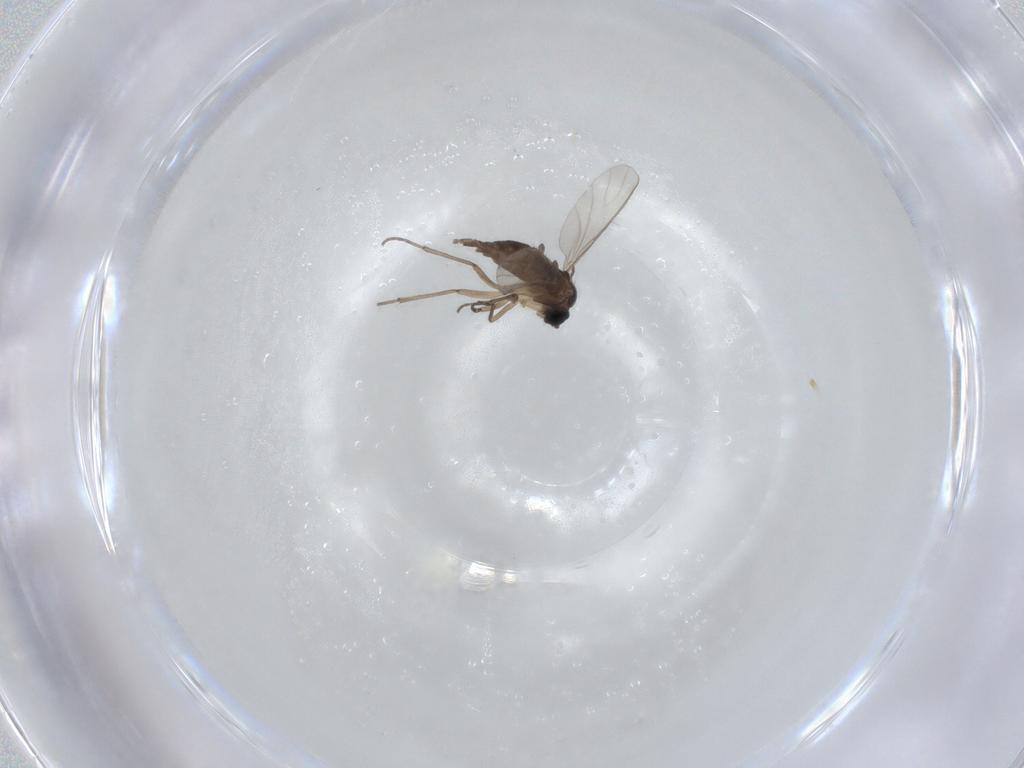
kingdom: Animalia
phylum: Arthropoda
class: Insecta
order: Diptera
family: Sciaridae
